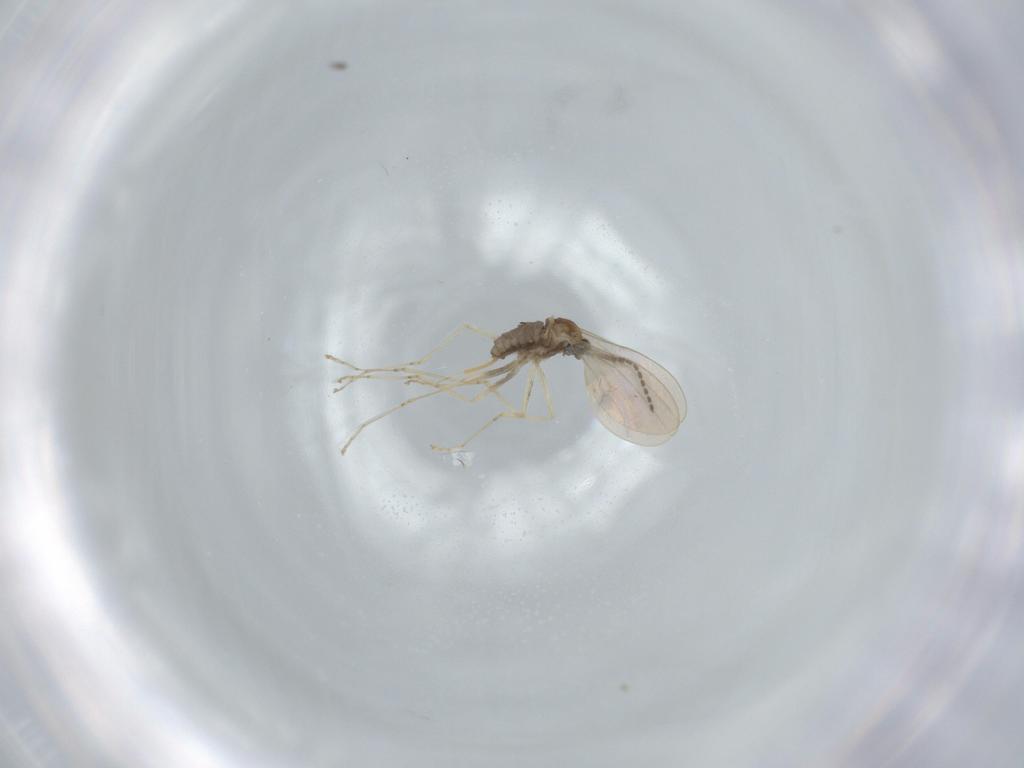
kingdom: Animalia
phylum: Arthropoda
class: Insecta
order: Diptera
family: Cecidomyiidae
